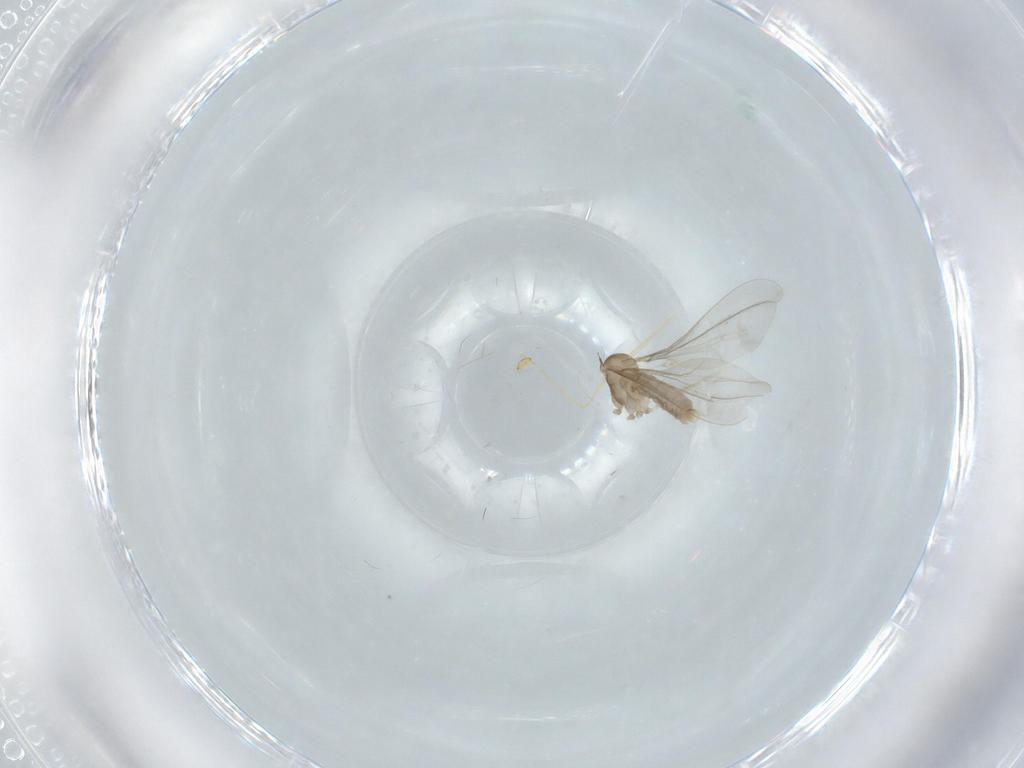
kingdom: Animalia
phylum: Arthropoda
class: Insecta
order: Diptera
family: Cecidomyiidae
